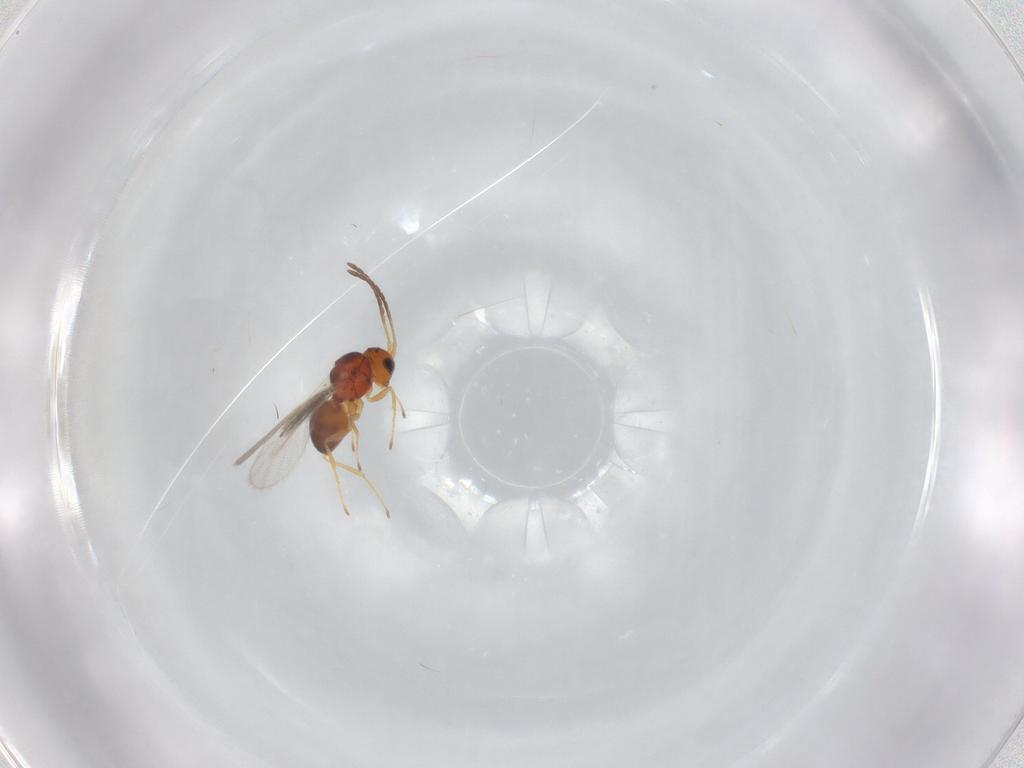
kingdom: Animalia
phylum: Arthropoda
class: Insecta
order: Hymenoptera
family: Figitidae
